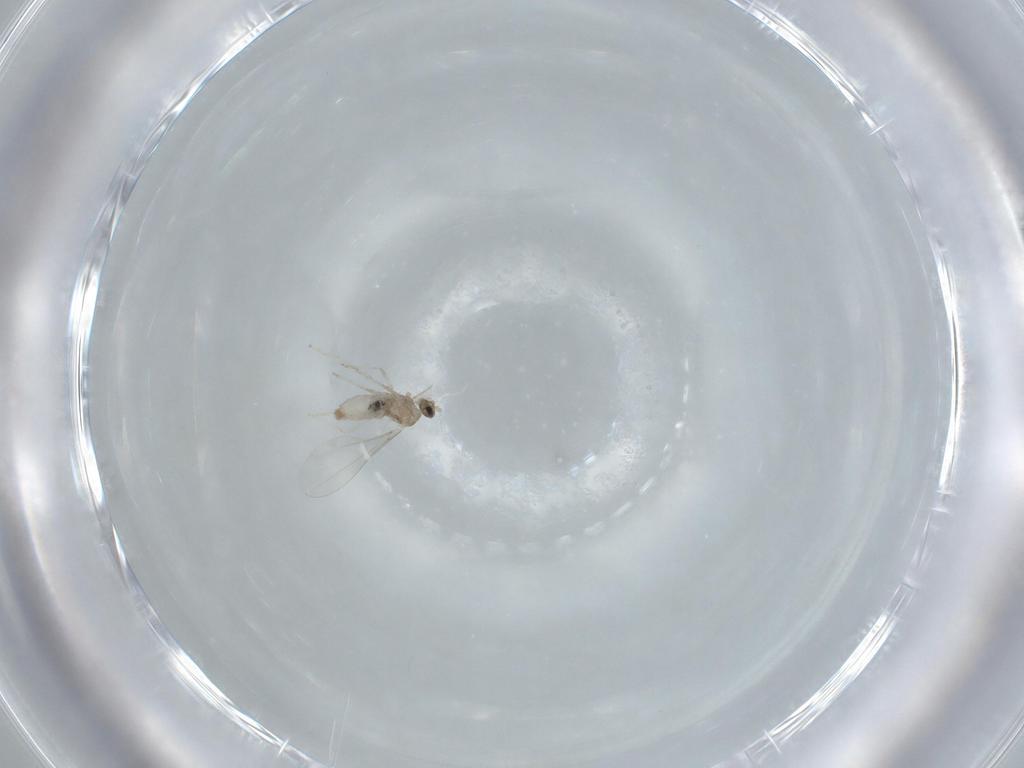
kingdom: Animalia
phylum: Arthropoda
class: Insecta
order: Diptera
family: Cecidomyiidae
